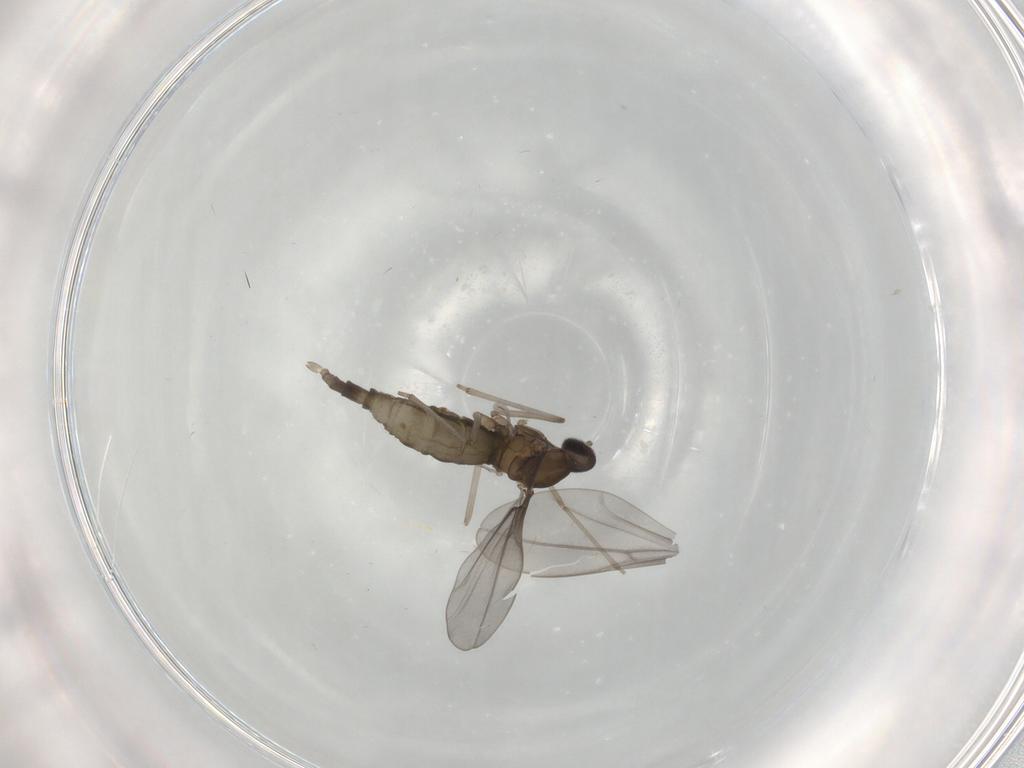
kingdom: Animalia
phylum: Arthropoda
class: Insecta
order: Diptera
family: Cecidomyiidae
